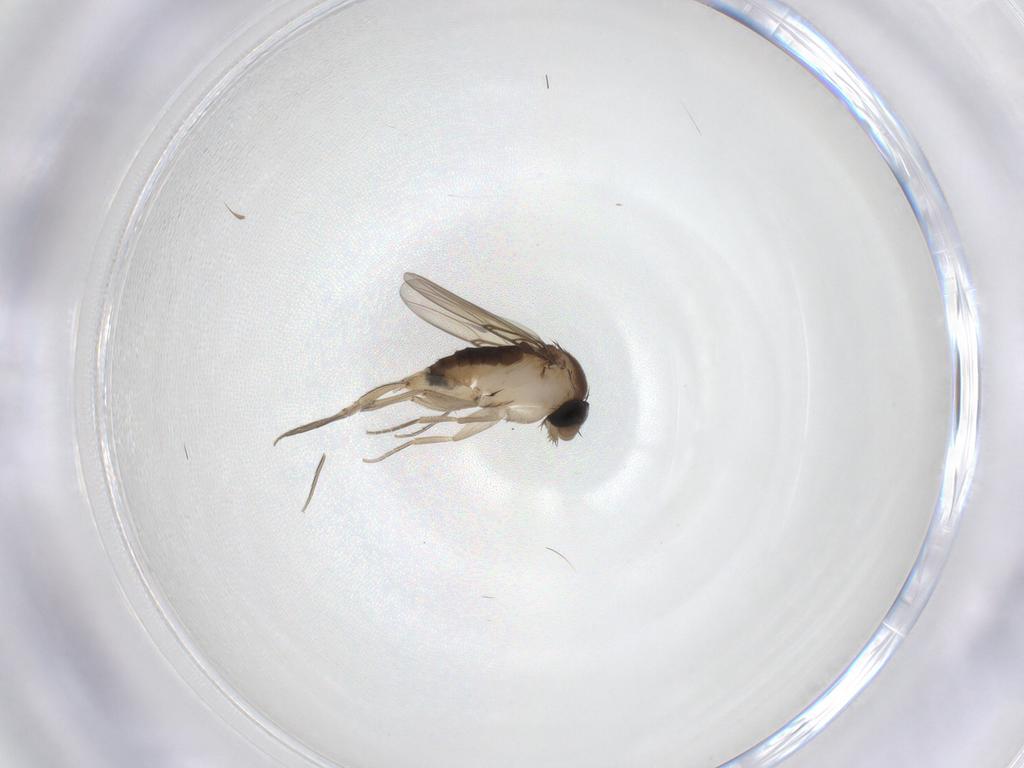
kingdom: Animalia
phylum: Arthropoda
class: Insecta
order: Diptera
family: Phoridae
